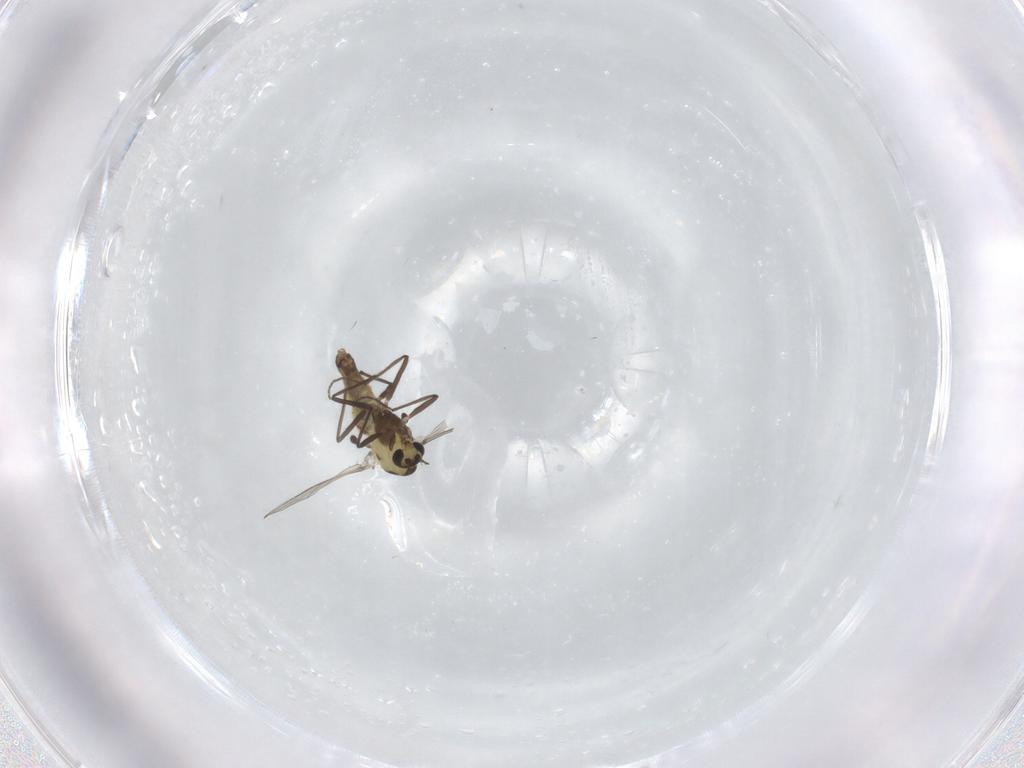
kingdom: Animalia
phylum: Arthropoda
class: Insecta
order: Diptera
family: Chironomidae
